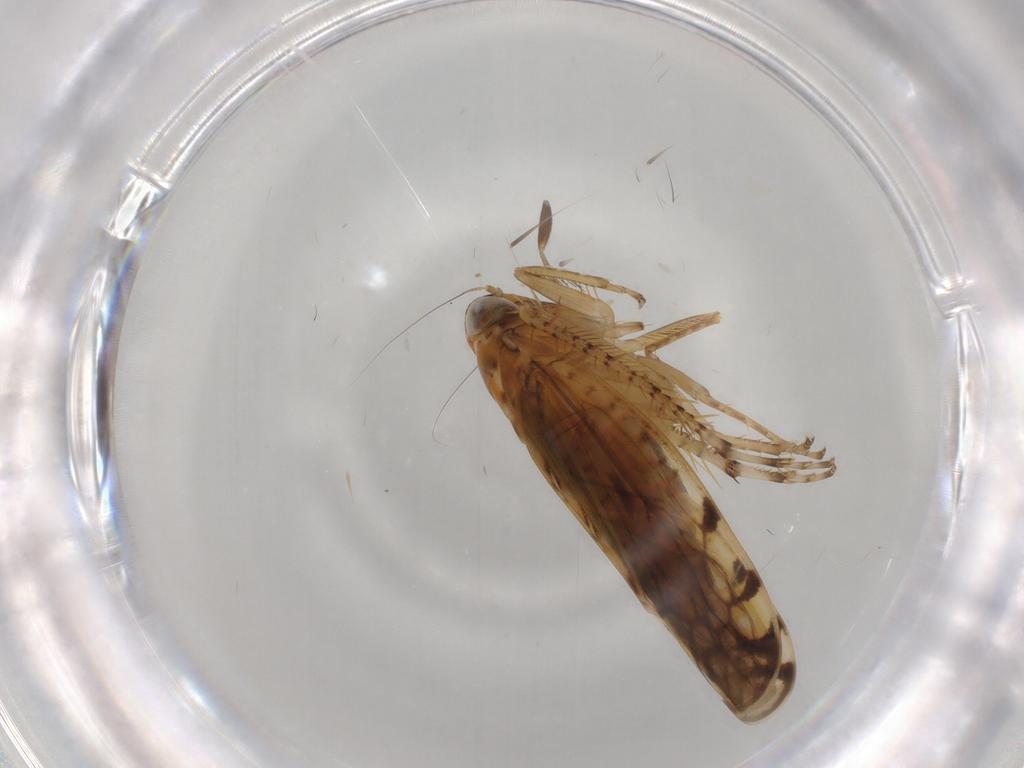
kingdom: Animalia
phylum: Arthropoda
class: Insecta
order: Hemiptera
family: Cicadellidae
